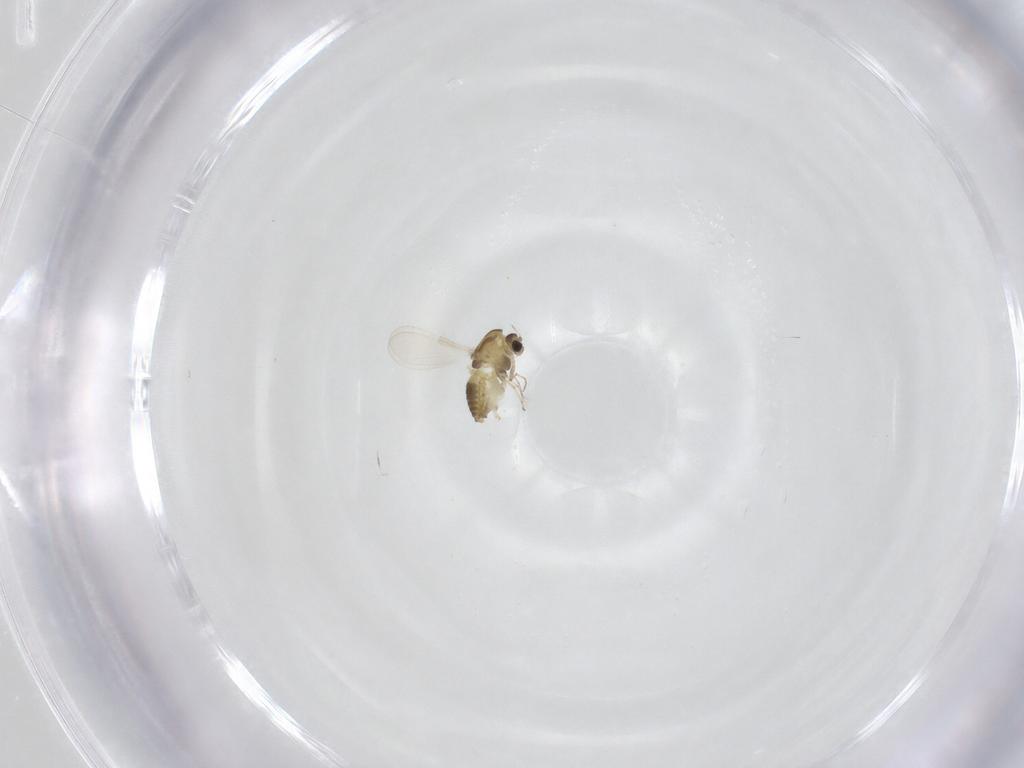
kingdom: Animalia
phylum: Arthropoda
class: Insecta
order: Diptera
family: Chironomidae
